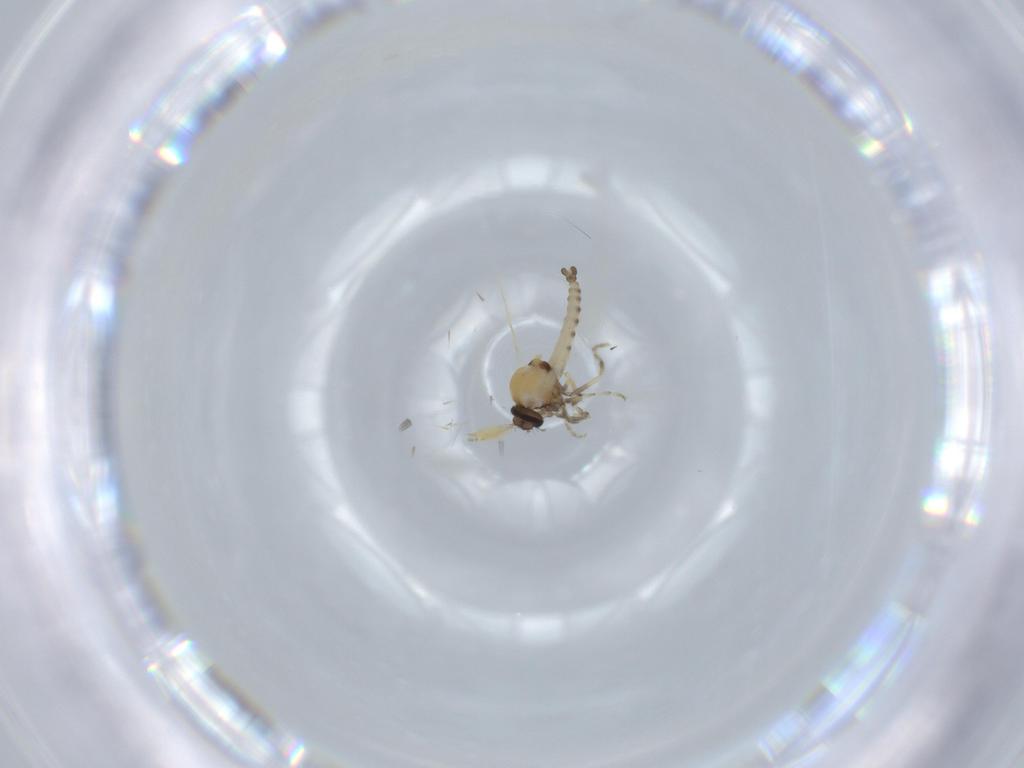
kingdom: Animalia
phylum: Arthropoda
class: Insecta
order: Diptera
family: Ceratopogonidae
